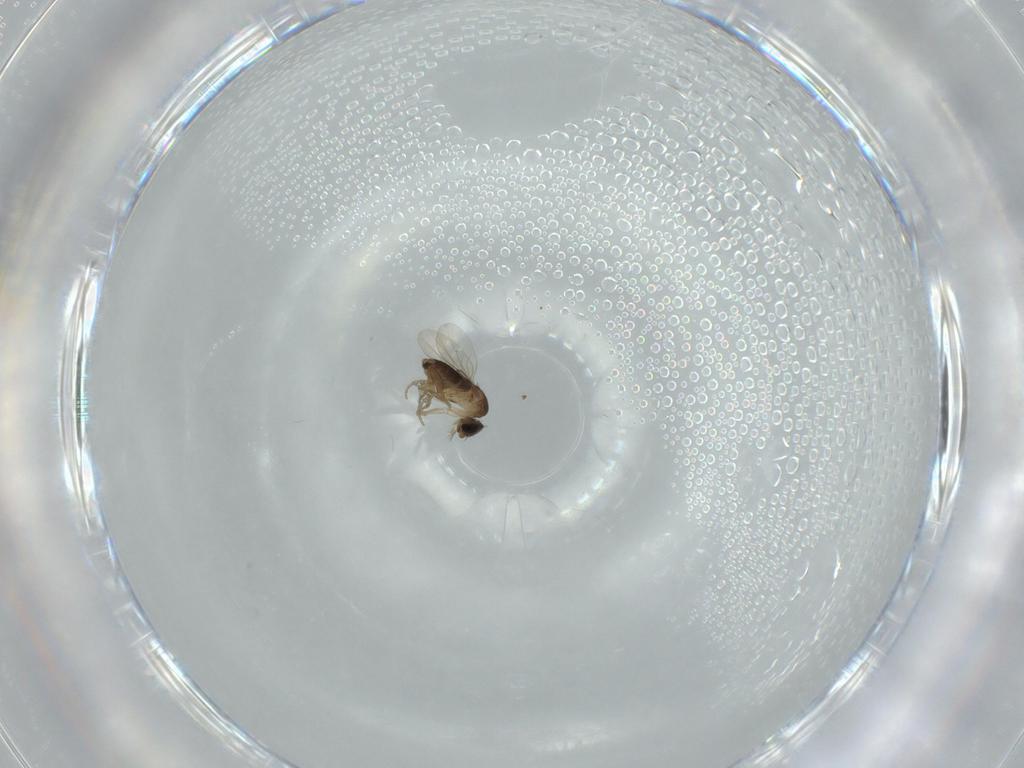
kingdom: Animalia
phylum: Arthropoda
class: Insecta
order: Diptera
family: Phoridae
